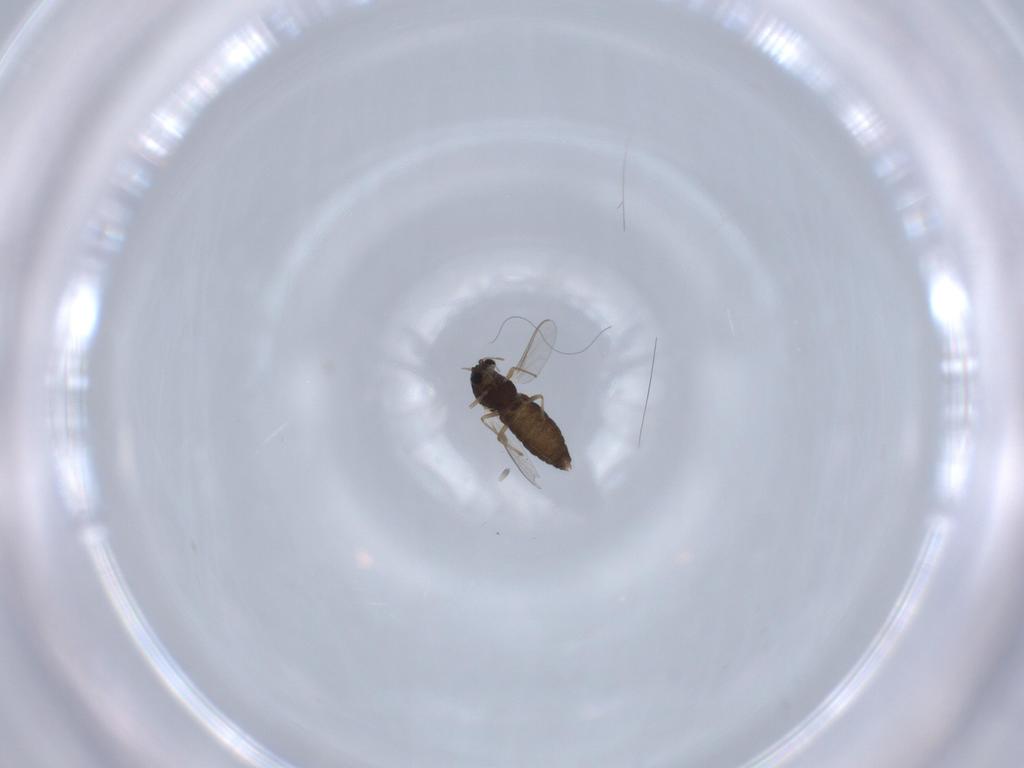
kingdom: Animalia
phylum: Arthropoda
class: Insecta
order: Diptera
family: Chironomidae
